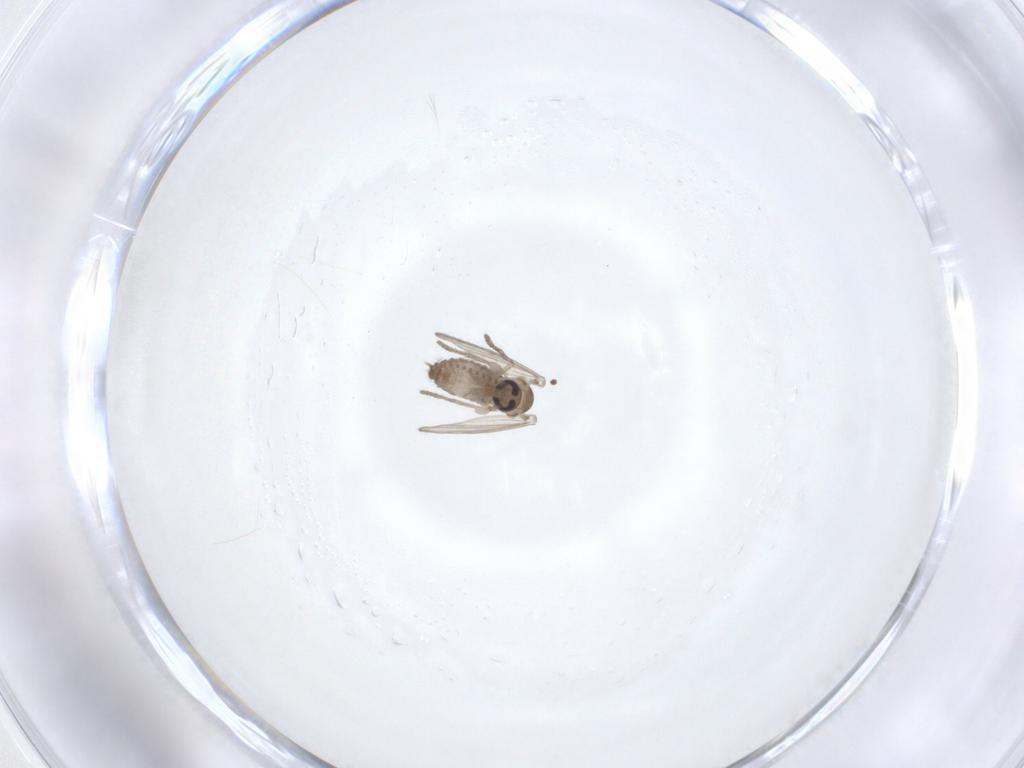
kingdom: Animalia
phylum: Arthropoda
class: Insecta
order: Diptera
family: Psychodidae
